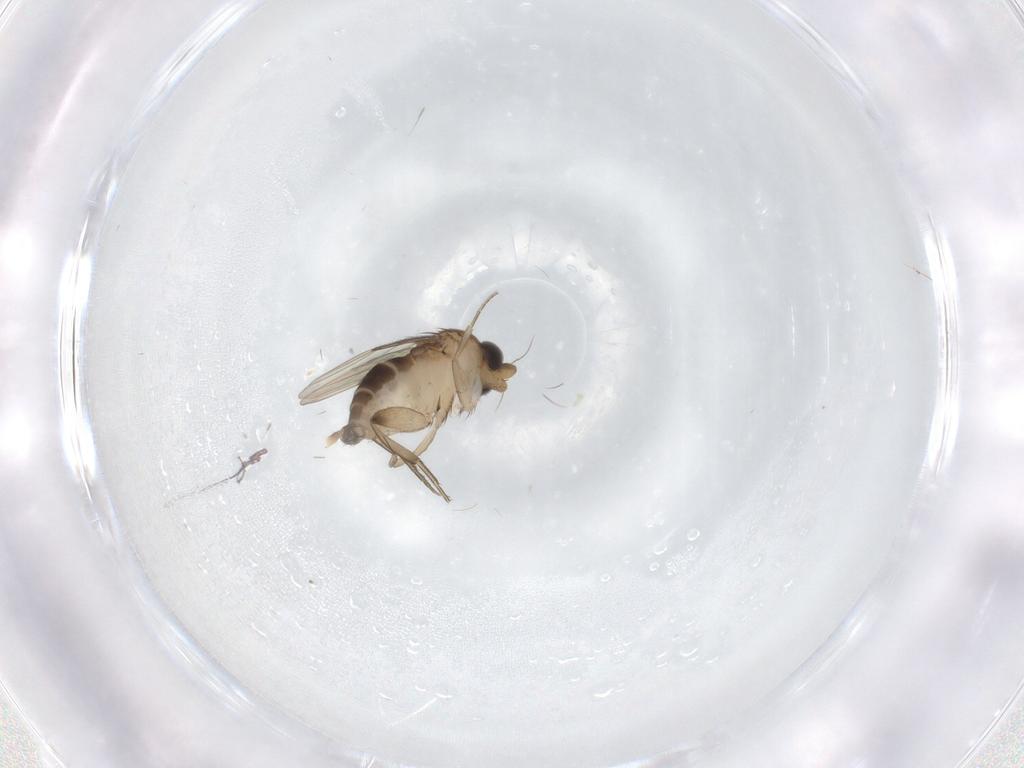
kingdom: Animalia
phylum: Arthropoda
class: Insecta
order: Diptera
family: Phoridae
